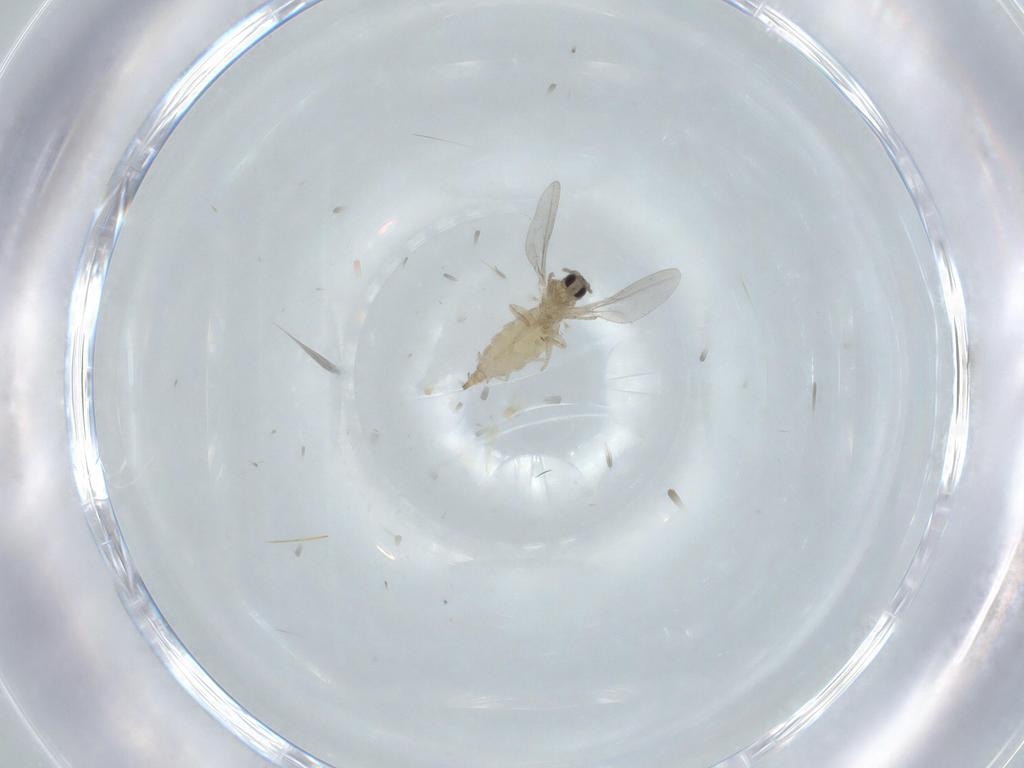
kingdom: Animalia
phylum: Arthropoda
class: Insecta
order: Diptera
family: Cecidomyiidae
